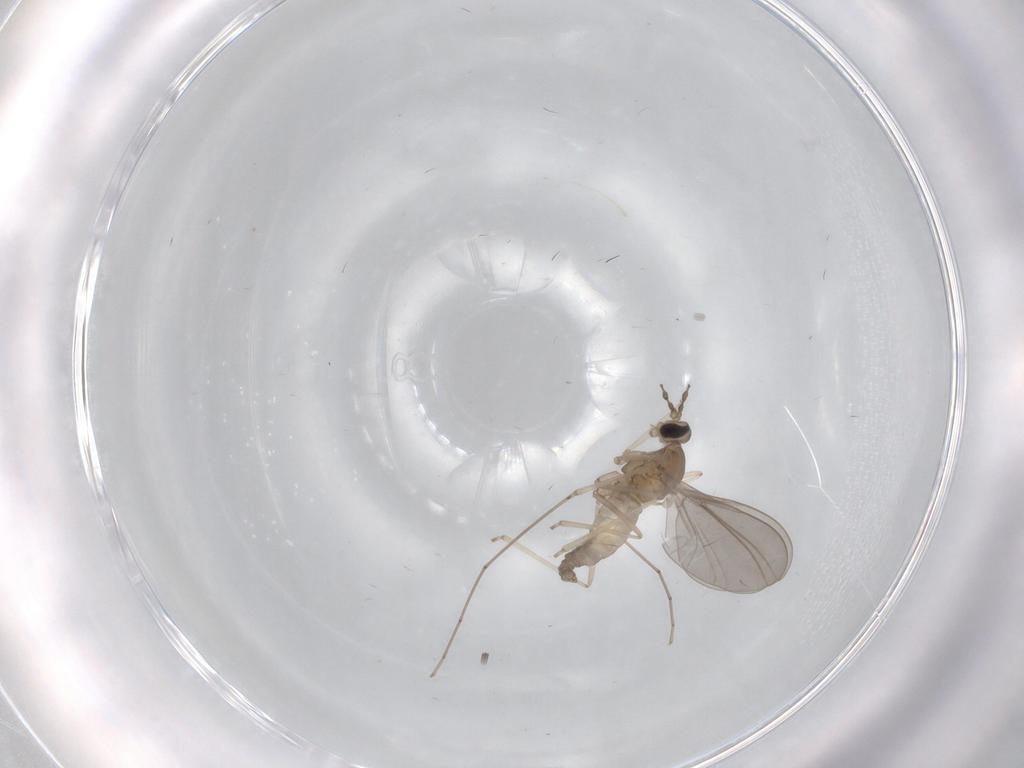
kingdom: Animalia
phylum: Arthropoda
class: Insecta
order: Diptera
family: Cecidomyiidae
